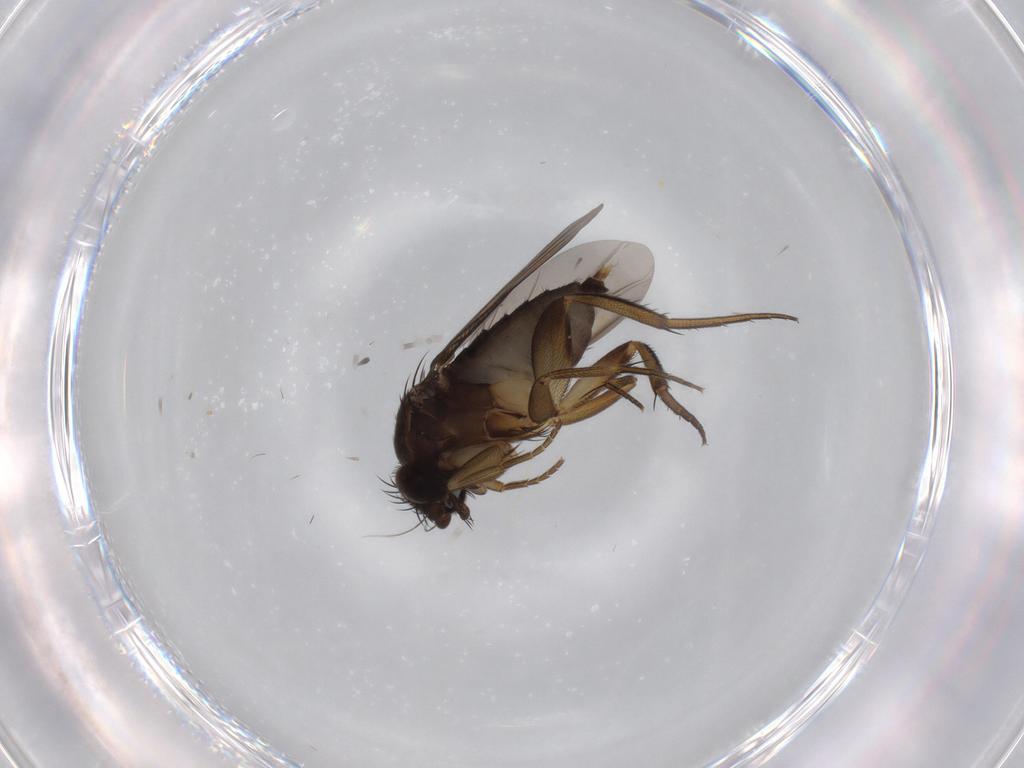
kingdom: Animalia
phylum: Arthropoda
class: Insecta
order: Diptera
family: Phoridae
